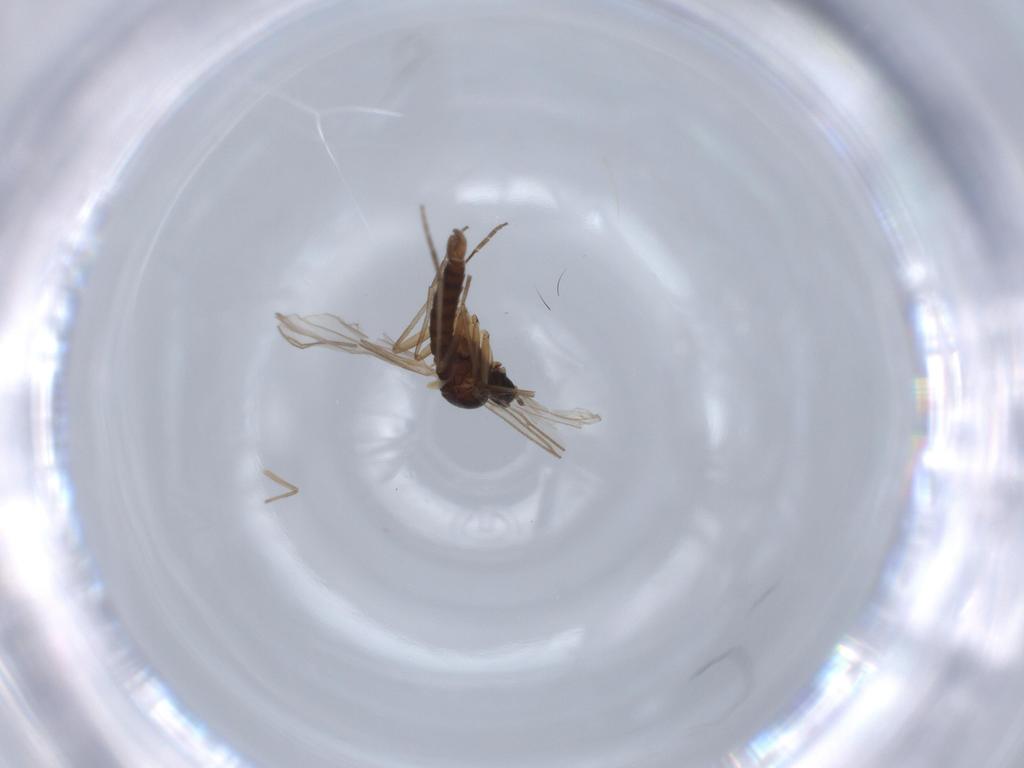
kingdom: Animalia
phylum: Arthropoda
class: Insecta
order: Diptera
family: Sciaridae
